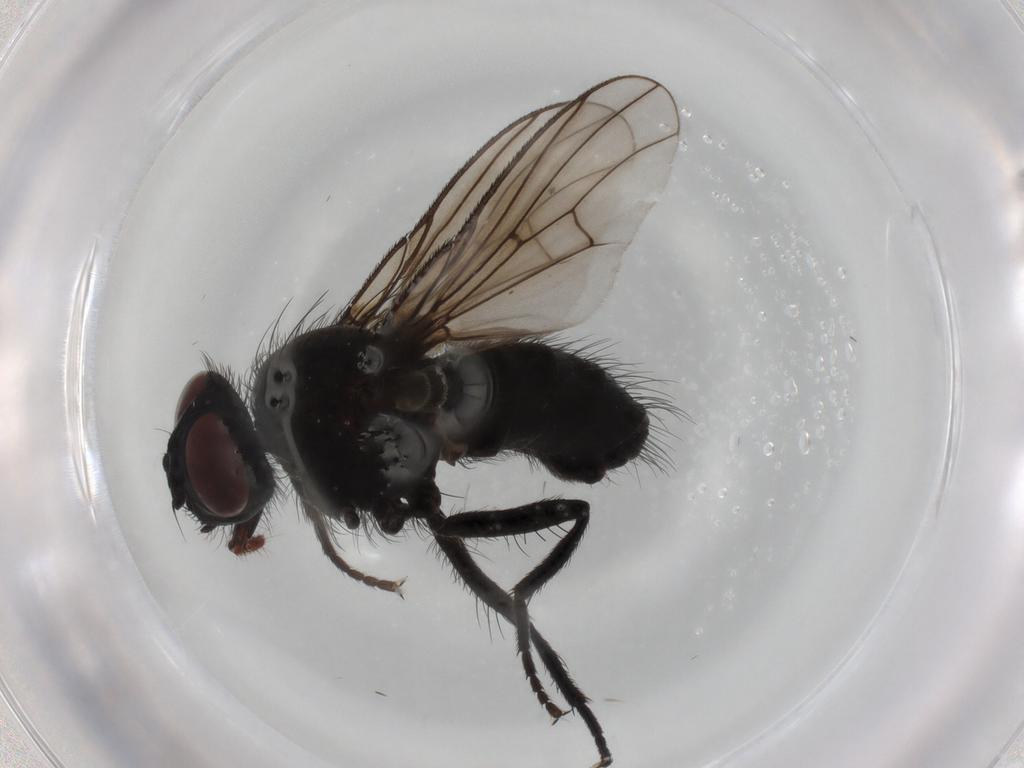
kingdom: Animalia
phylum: Arthropoda
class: Insecta
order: Diptera
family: Muscidae
